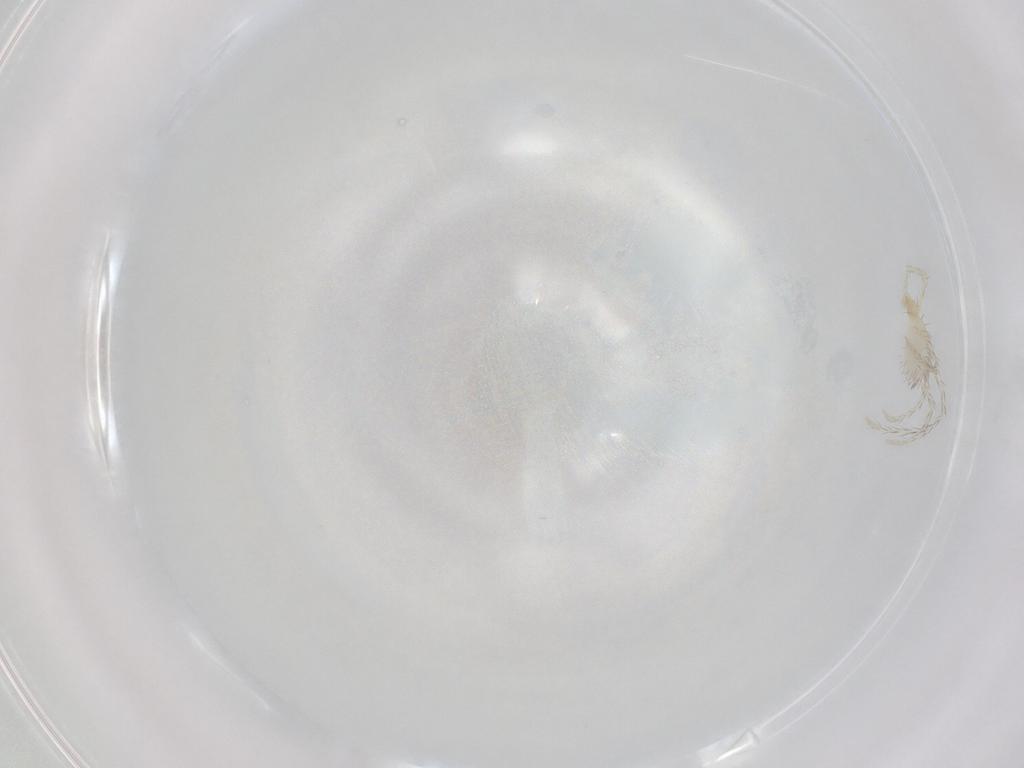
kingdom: Animalia
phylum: Arthropoda
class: Arachnida
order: Trombidiformes
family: Erythraeidae
